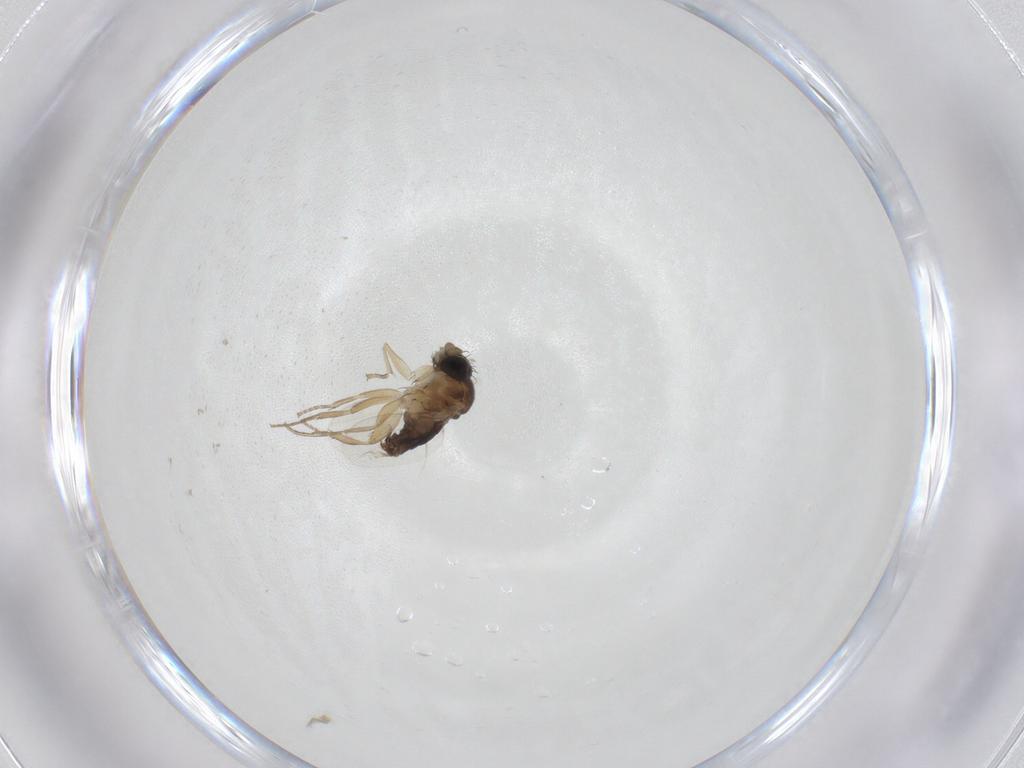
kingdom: Animalia
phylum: Arthropoda
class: Insecta
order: Diptera
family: Phoridae
